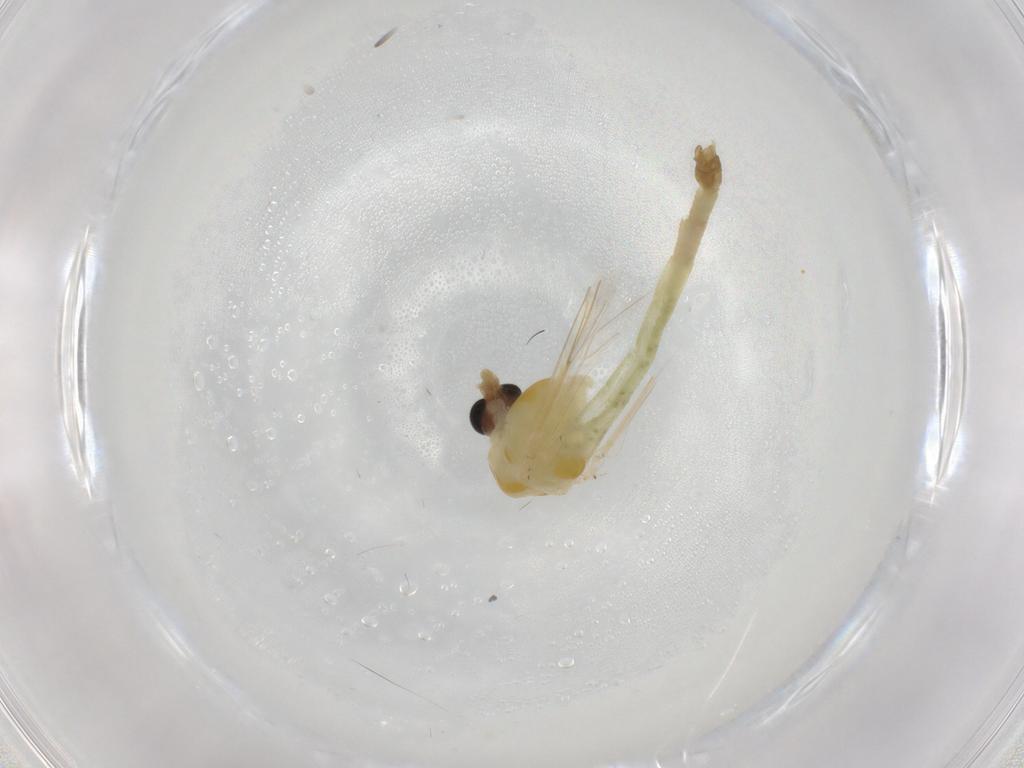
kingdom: Animalia
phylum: Arthropoda
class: Insecta
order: Diptera
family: Chironomidae
